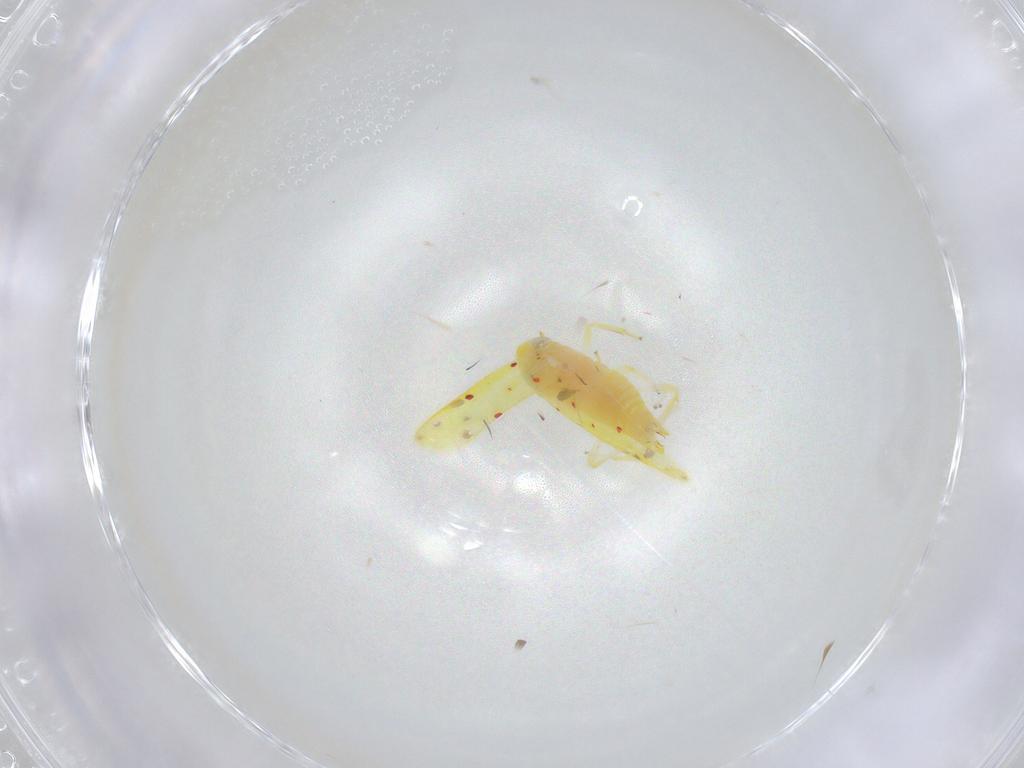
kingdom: Animalia
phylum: Arthropoda
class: Insecta
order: Hemiptera
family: Cicadellidae
